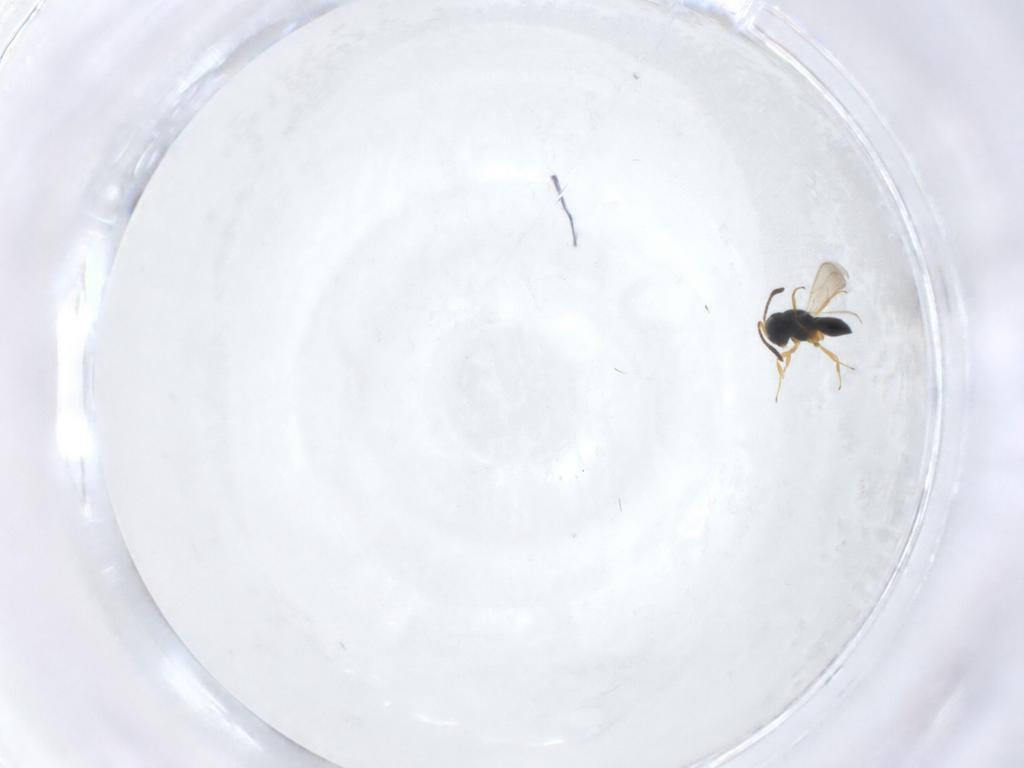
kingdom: Animalia
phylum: Arthropoda
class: Insecta
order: Hymenoptera
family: Scelionidae
